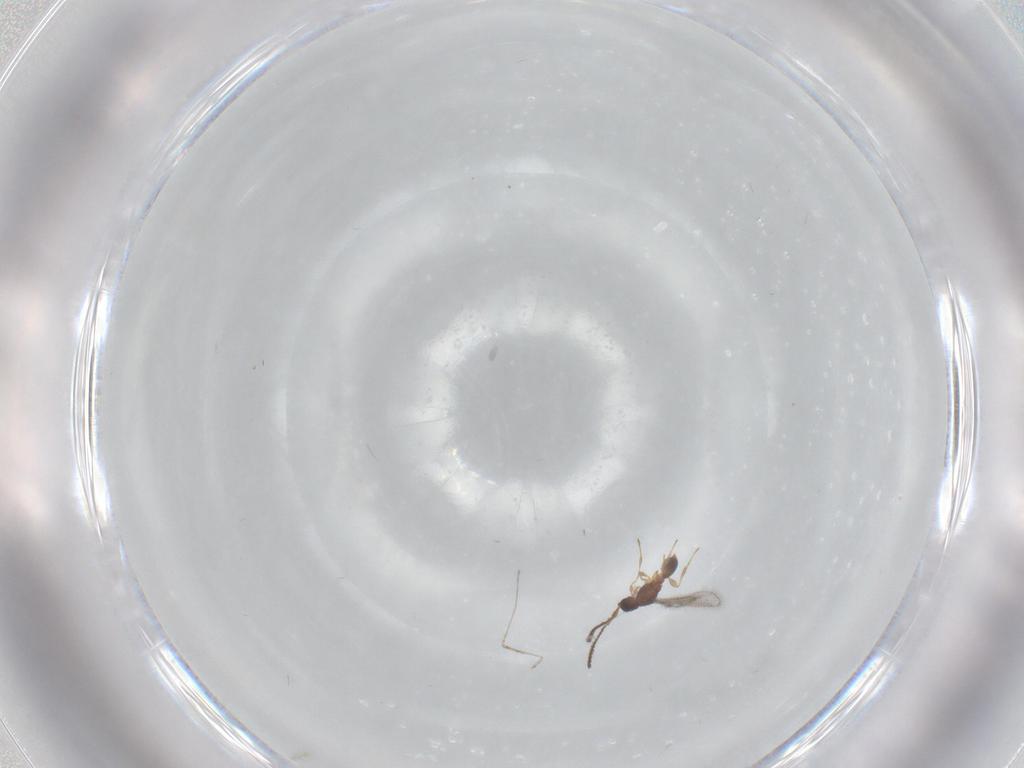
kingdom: Animalia
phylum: Arthropoda
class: Insecta
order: Hymenoptera
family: Diapriidae
